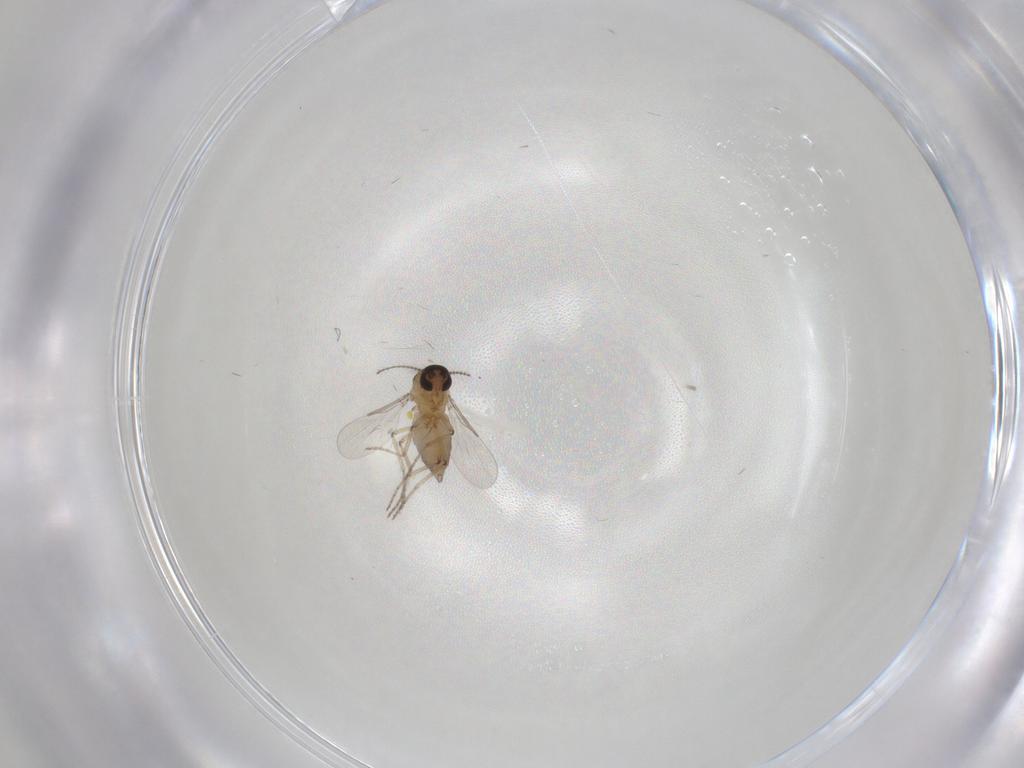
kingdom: Animalia
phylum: Arthropoda
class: Insecta
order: Diptera
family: Ceratopogonidae
